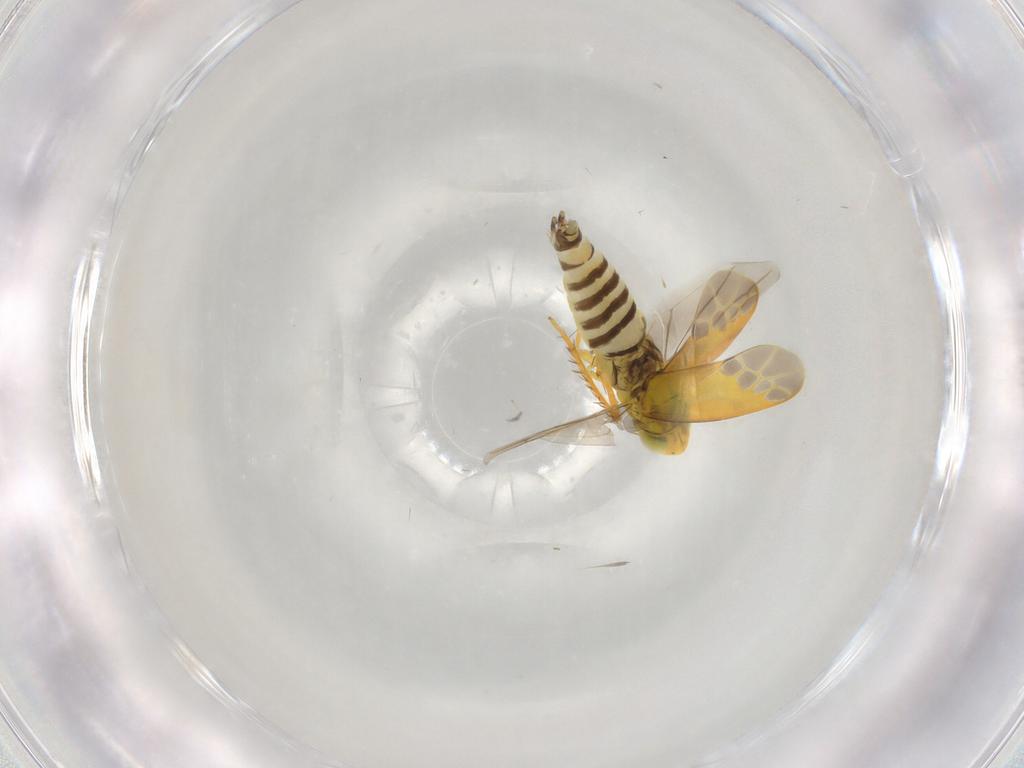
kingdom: Animalia
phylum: Arthropoda
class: Insecta
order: Hemiptera
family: Cicadellidae
